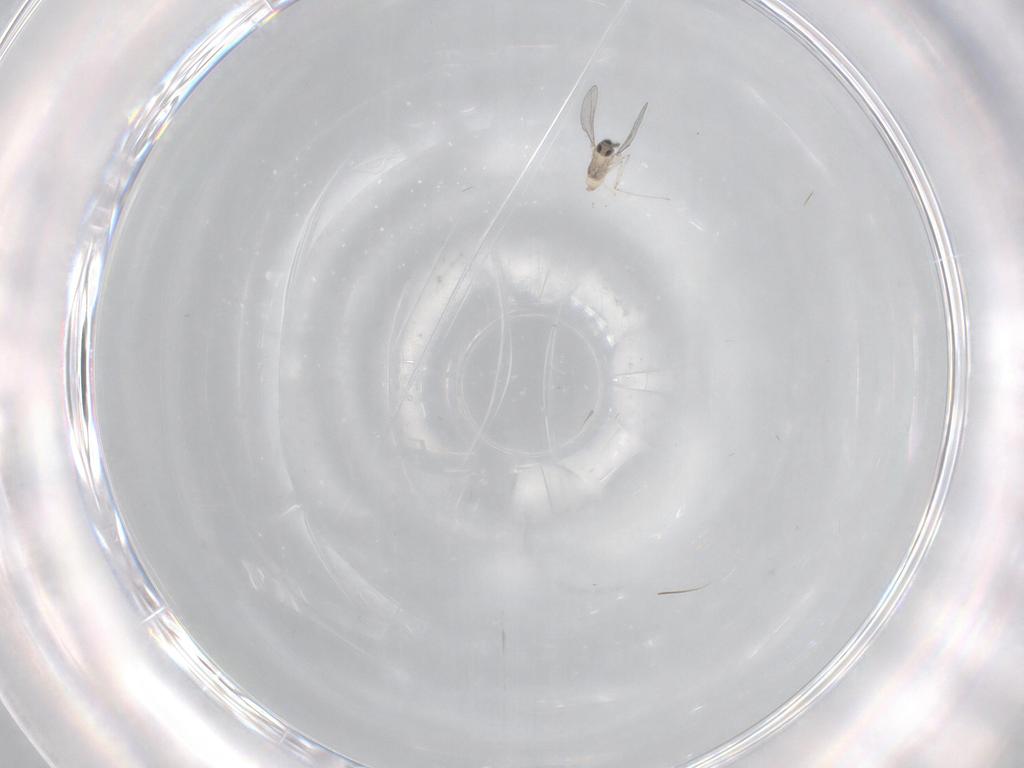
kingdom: Animalia
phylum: Arthropoda
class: Insecta
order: Diptera
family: Cecidomyiidae
